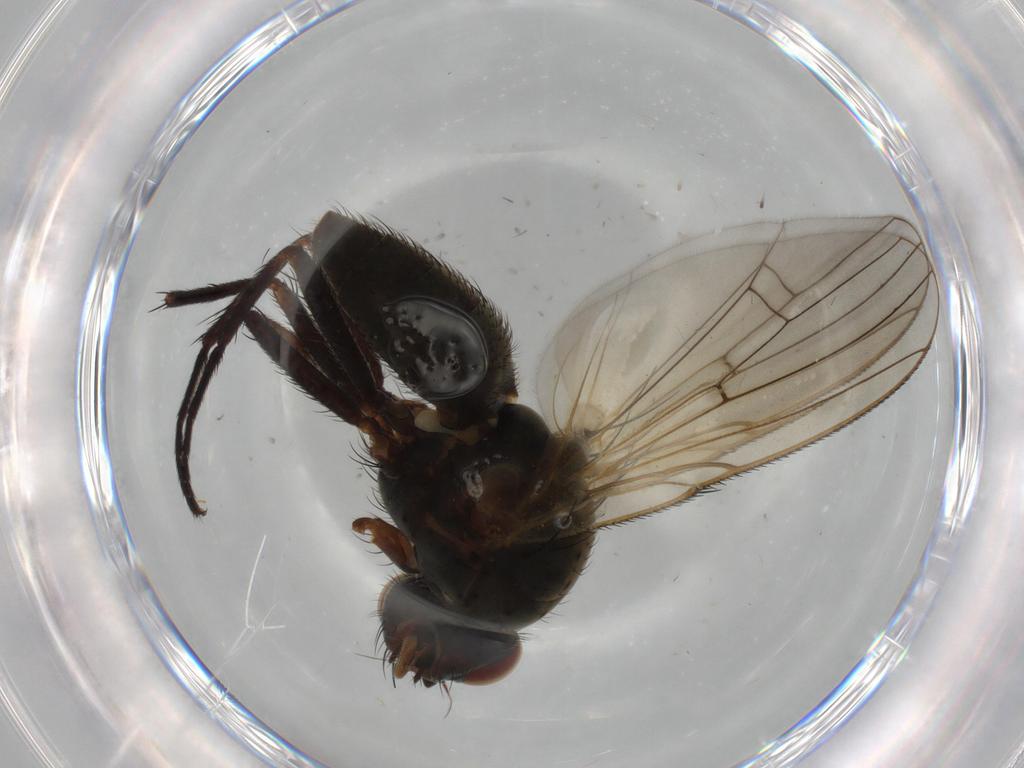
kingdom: Animalia
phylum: Arthropoda
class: Insecta
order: Diptera
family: Anthomyiidae
